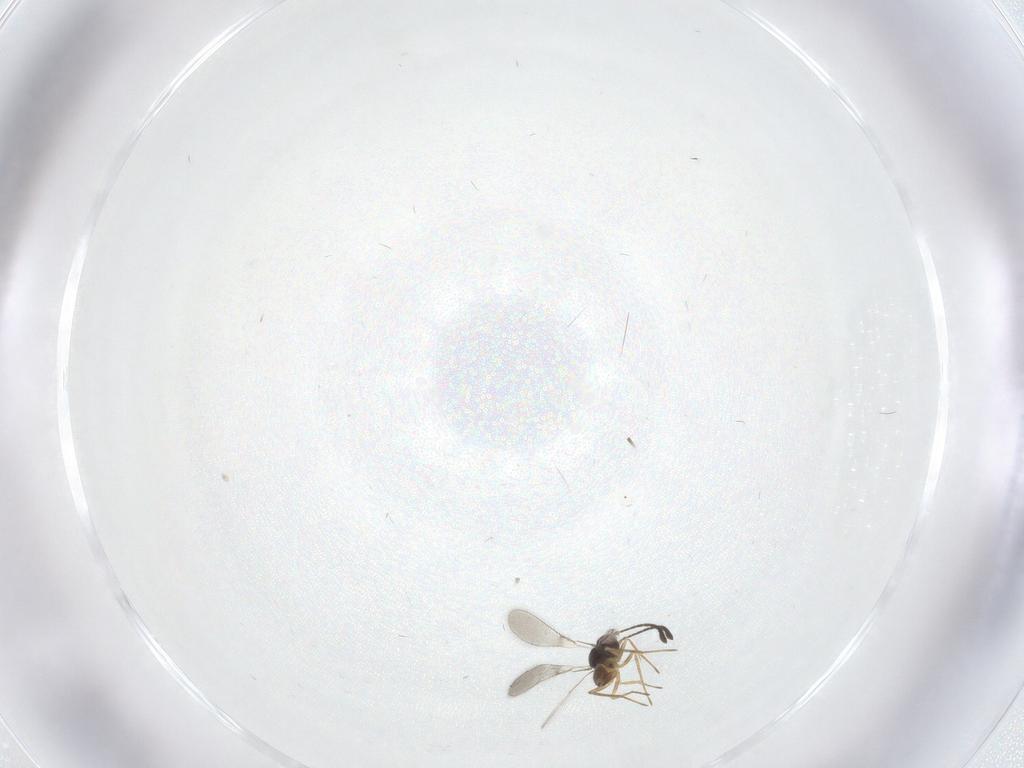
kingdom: Animalia
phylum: Arthropoda
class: Insecta
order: Hymenoptera
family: Mymaridae
